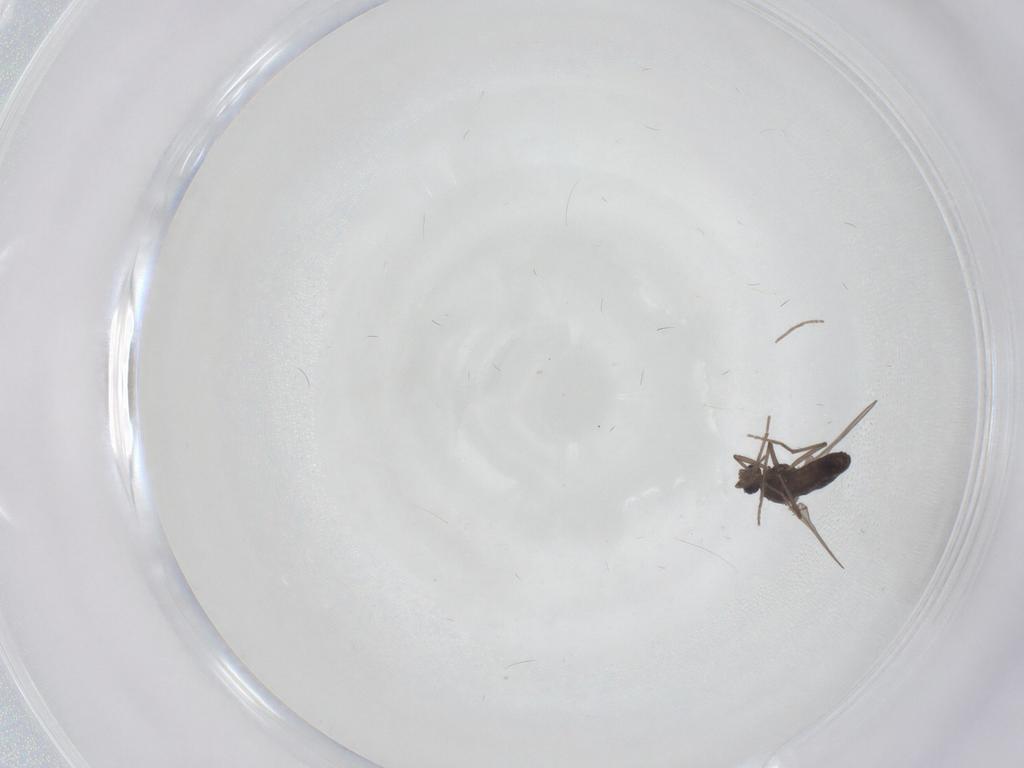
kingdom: Animalia
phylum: Arthropoda
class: Insecta
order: Diptera
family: Chironomidae
